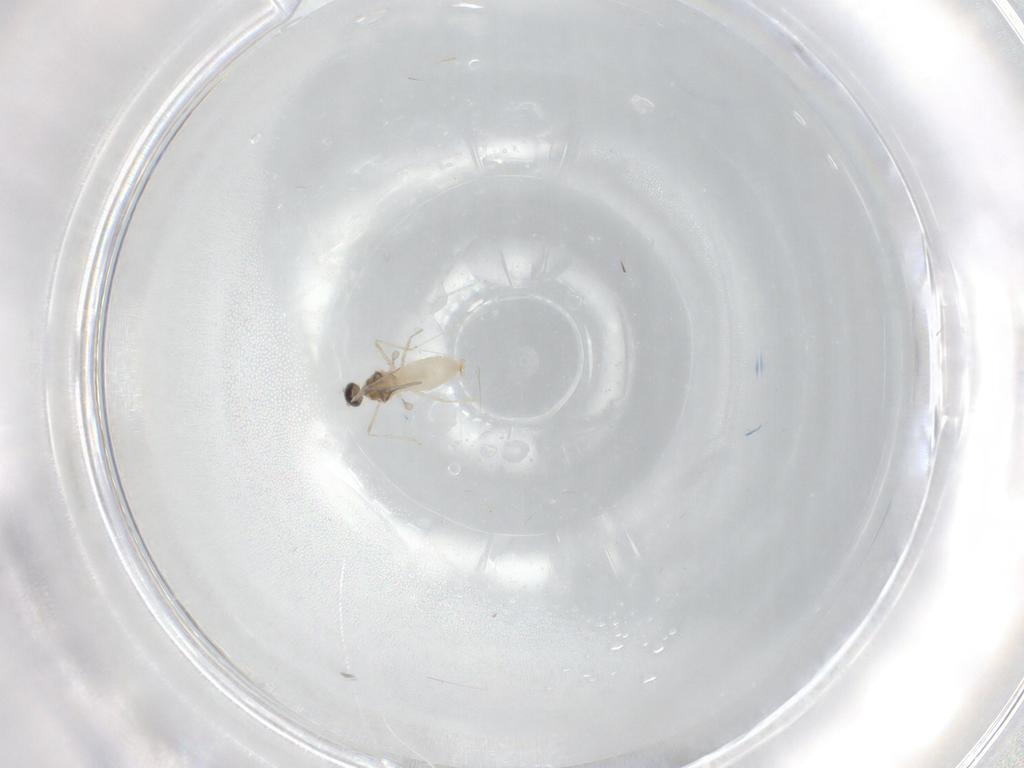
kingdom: Animalia
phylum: Arthropoda
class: Insecta
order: Diptera
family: Cecidomyiidae
